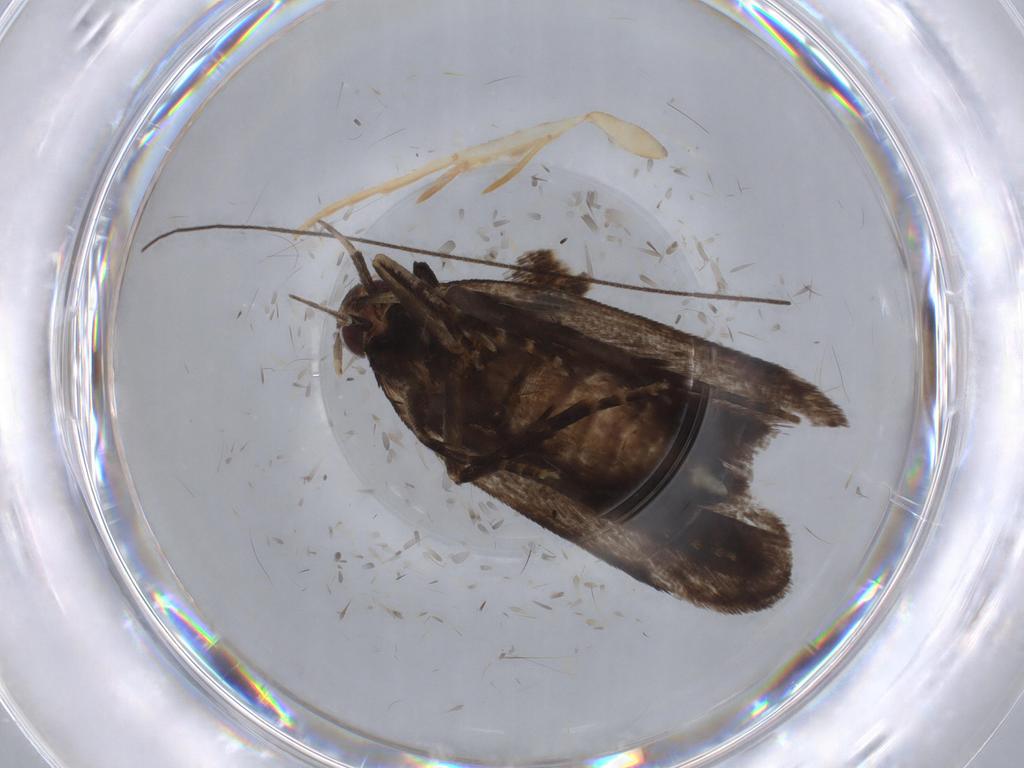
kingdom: Animalia
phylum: Arthropoda
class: Insecta
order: Lepidoptera
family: Gelechiidae
